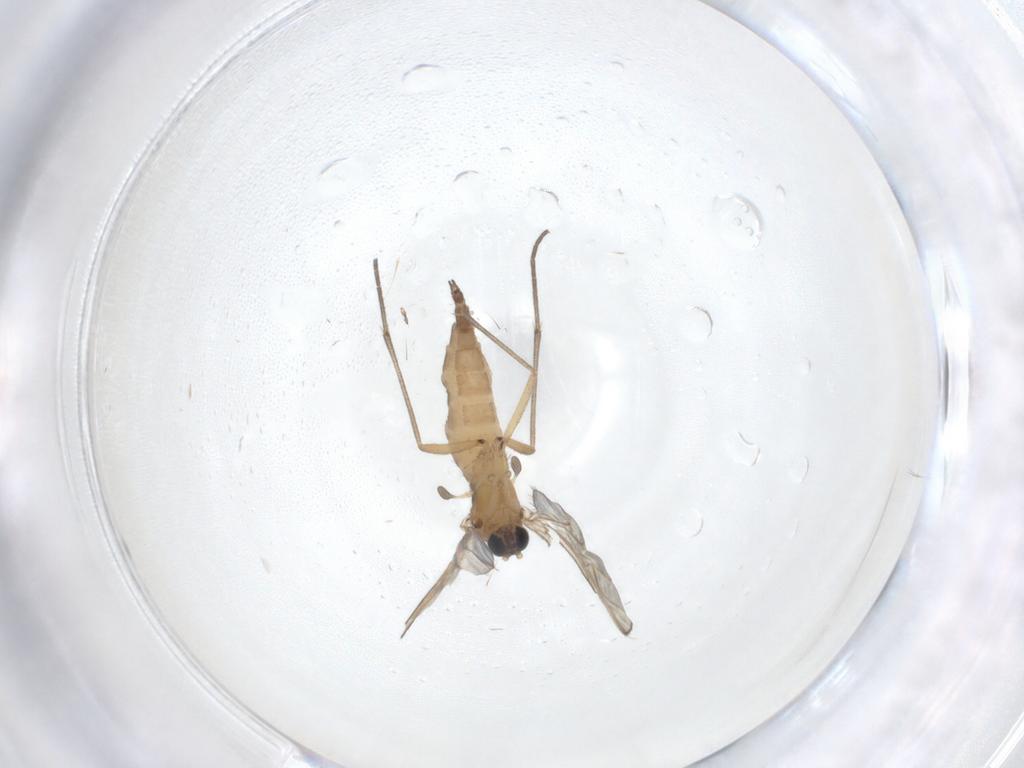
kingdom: Animalia
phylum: Arthropoda
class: Insecta
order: Diptera
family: Sciaridae
